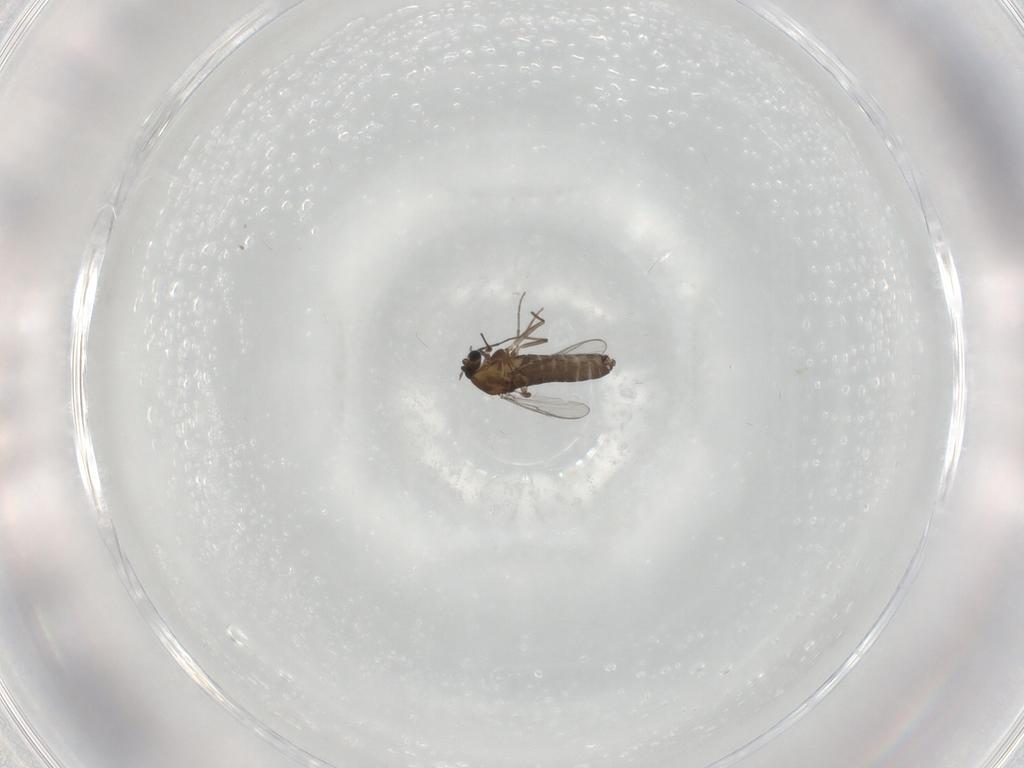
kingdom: Animalia
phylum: Arthropoda
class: Insecta
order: Diptera
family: Chironomidae
